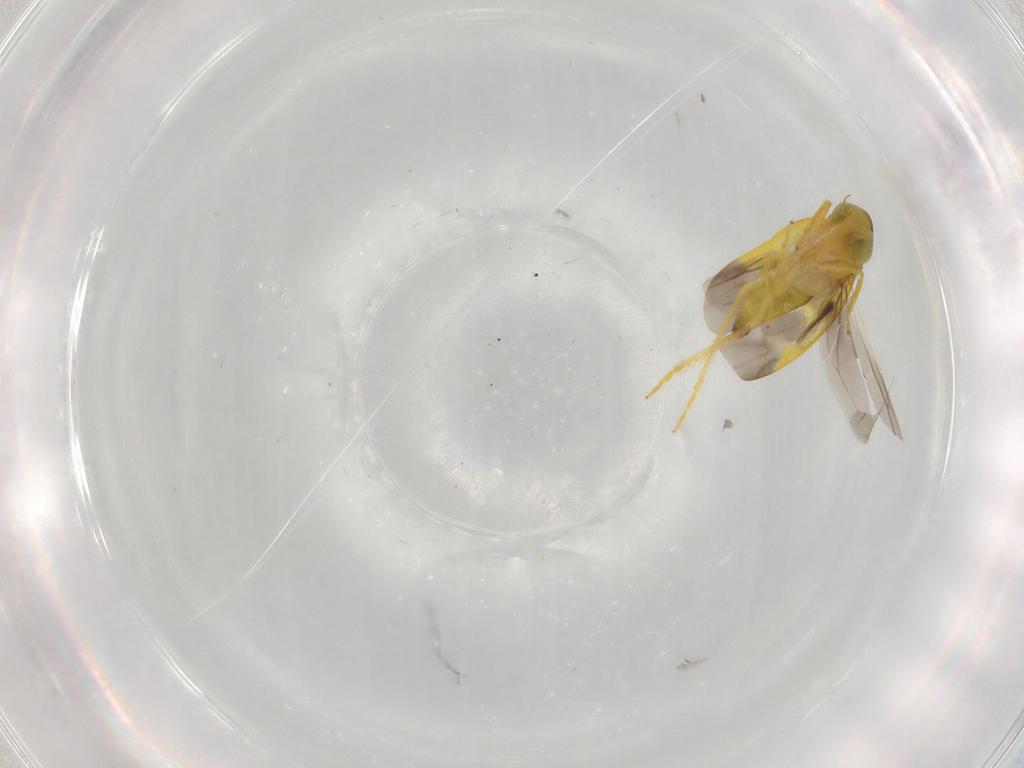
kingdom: Animalia
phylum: Arthropoda
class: Insecta
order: Hemiptera
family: Cicadellidae
